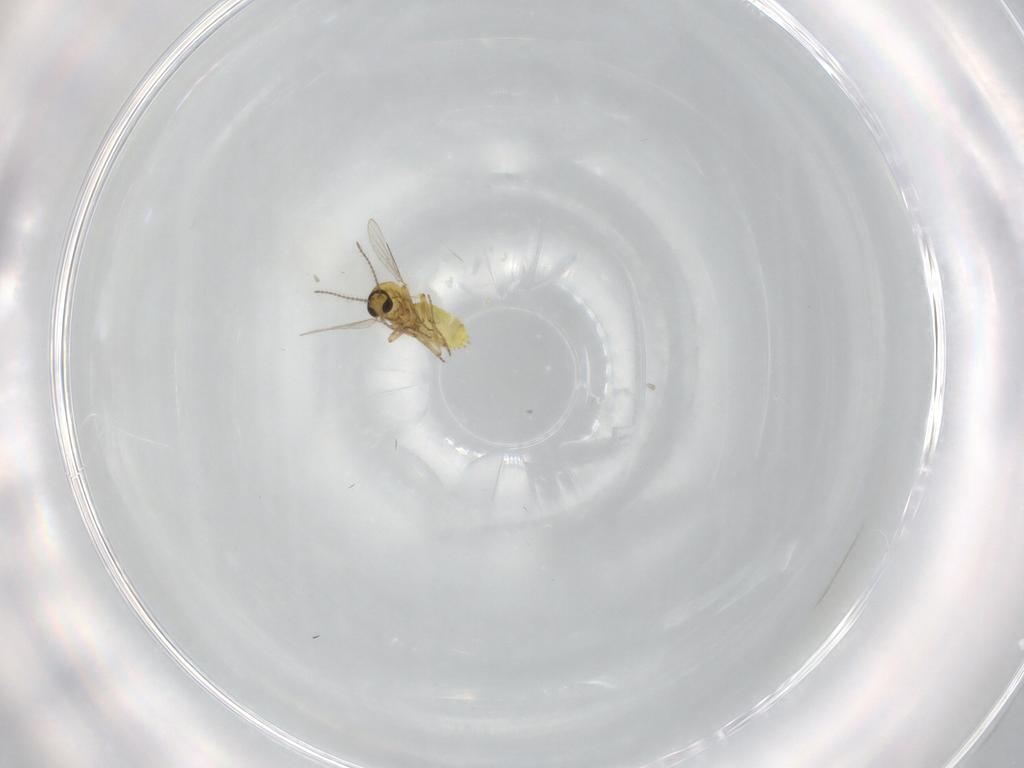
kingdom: Animalia
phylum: Arthropoda
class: Insecta
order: Diptera
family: Ceratopogonidae
